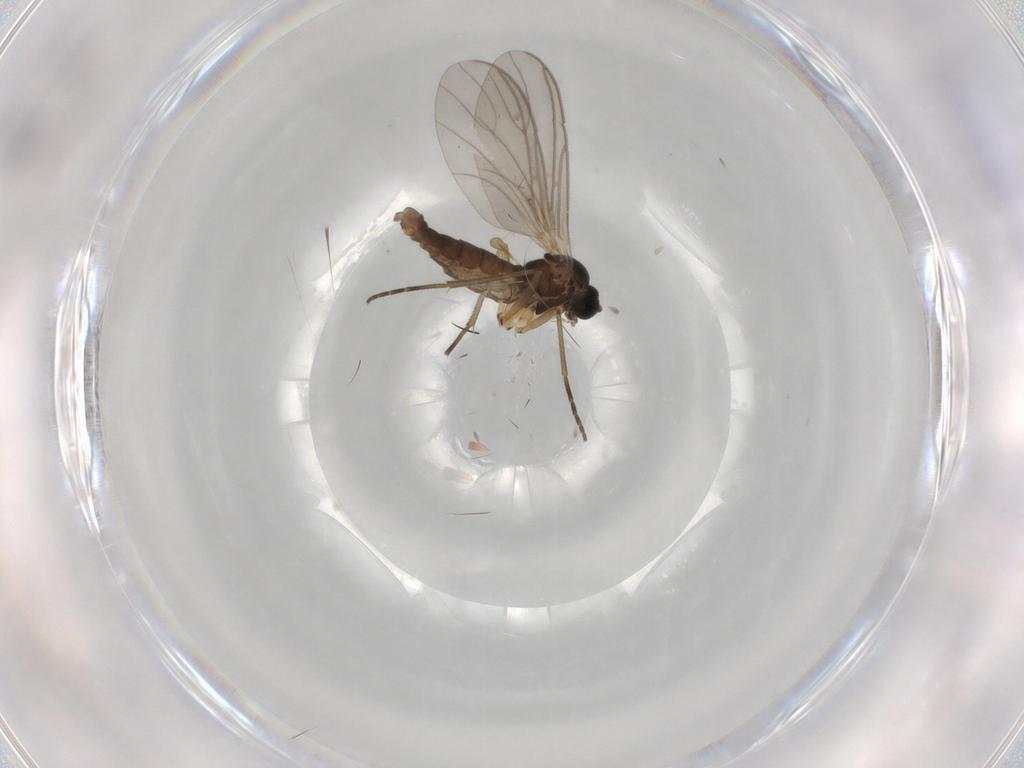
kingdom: Animalia
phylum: Arthropoda
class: Insecta
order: Diptera
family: Sciaridae
